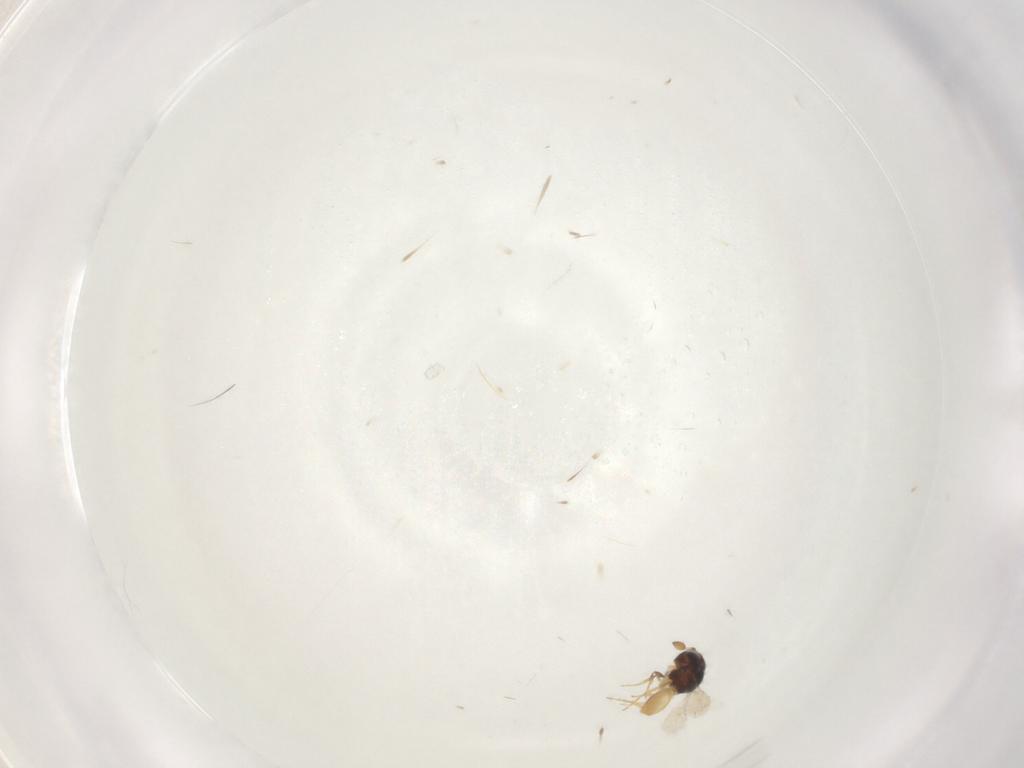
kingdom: Animalia
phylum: Arthropoda
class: Insecta
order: Hymenoptera
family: Scelionidae
